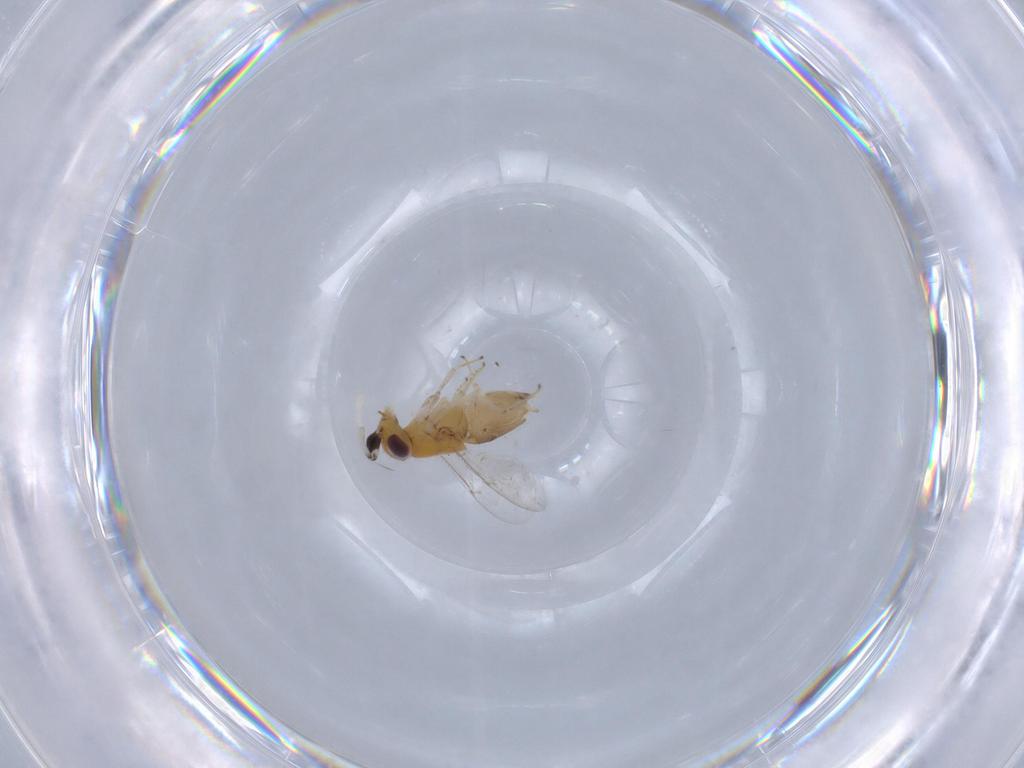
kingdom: Animalia
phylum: Arthropoda
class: Insecta
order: Hymenoptera
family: Encyrtidae
